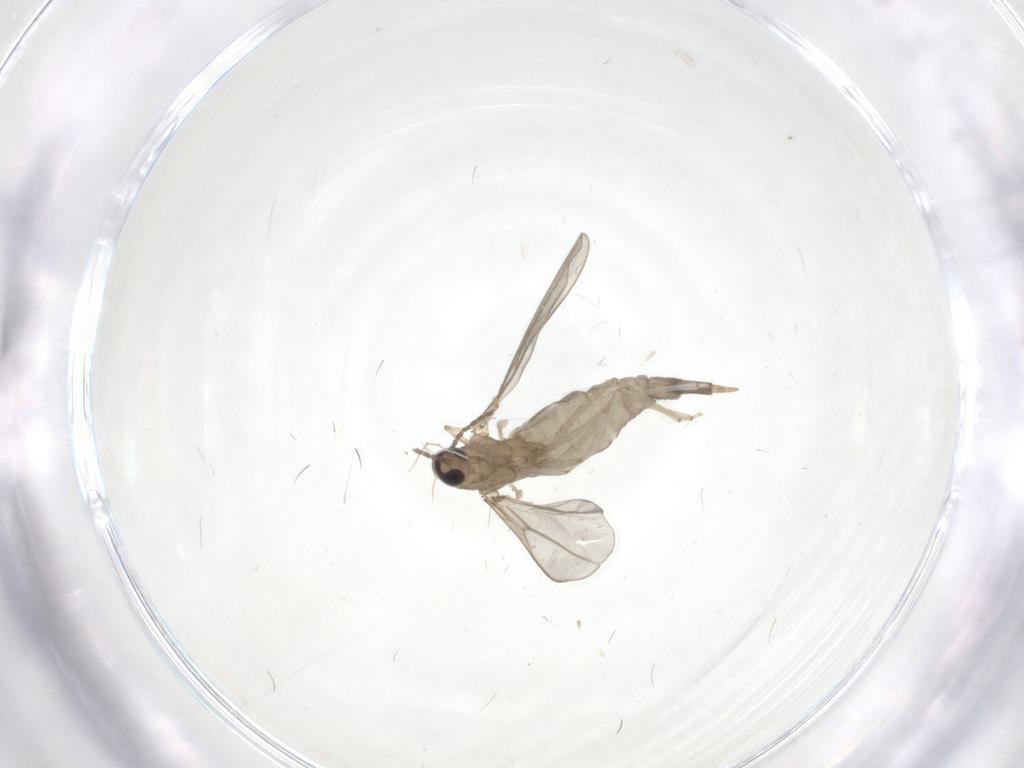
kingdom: Animalia
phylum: Arthropoda
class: Insecta
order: Diptera
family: Cecidomyiidae
